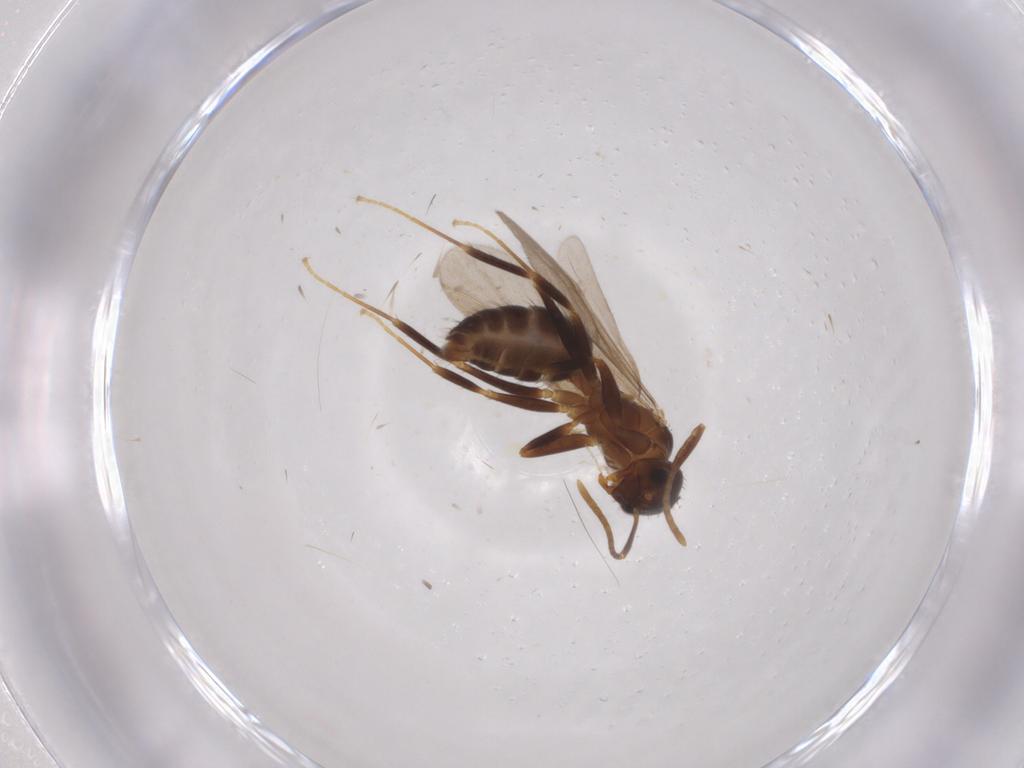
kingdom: Animalia
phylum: Arthropoda
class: Insecta
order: Hymenoptera
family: Formicidae
